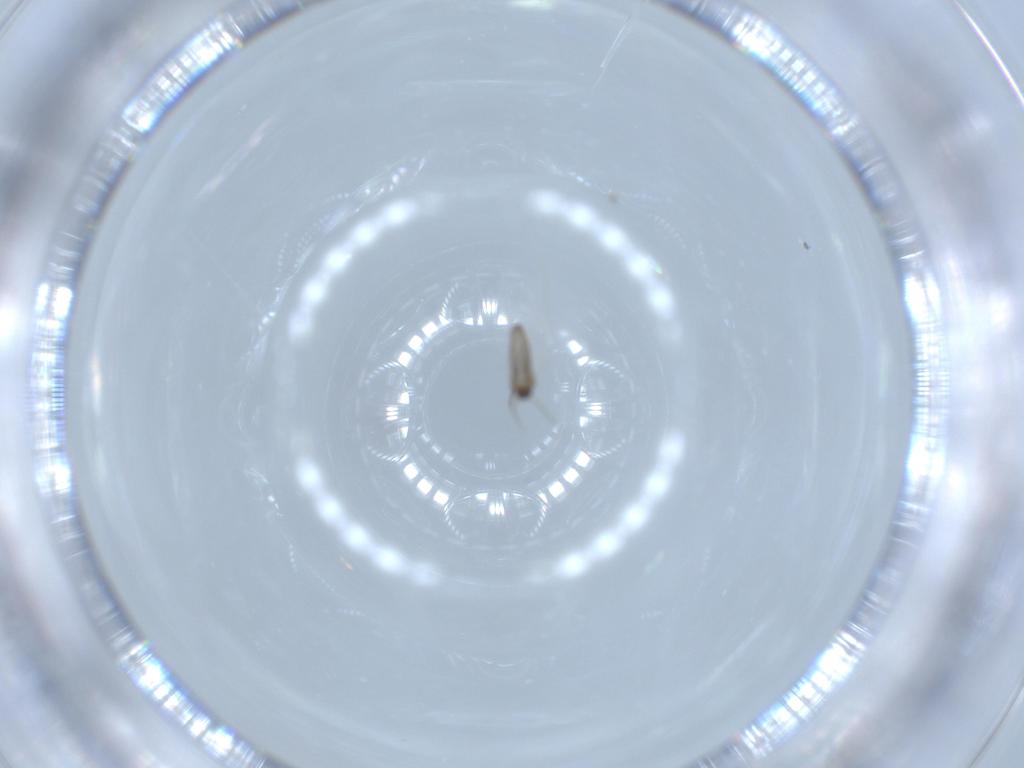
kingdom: Animalia
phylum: Arthropoda
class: Insecta
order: Diptera
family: Cecidomyiidae
